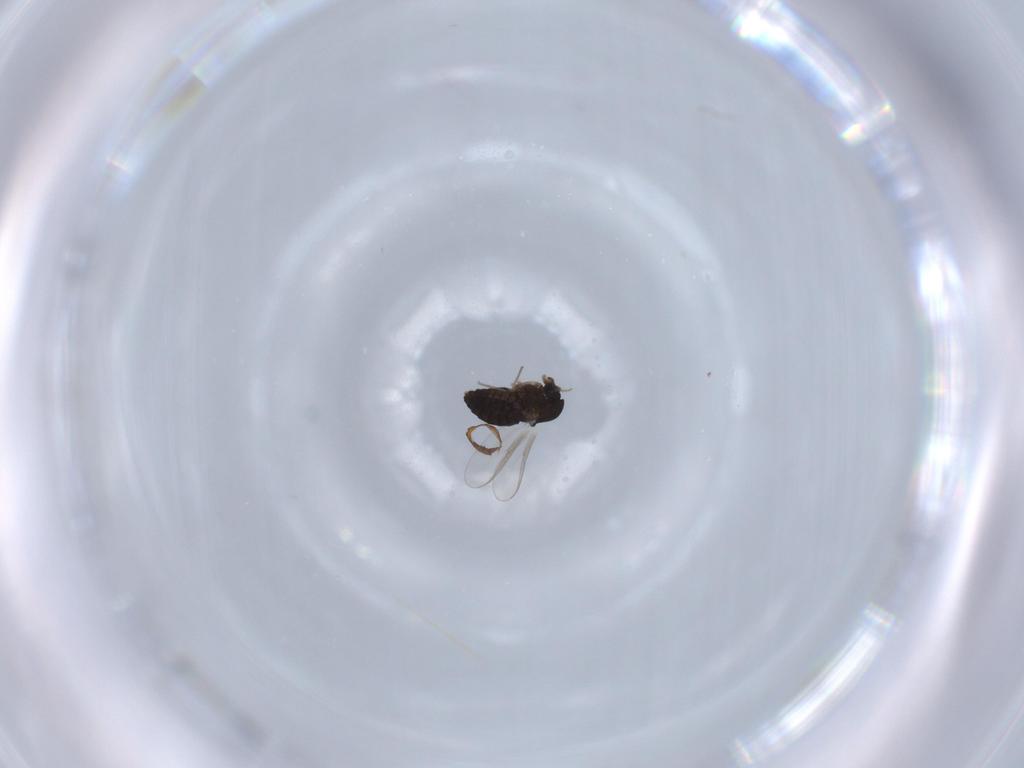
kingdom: Animalia
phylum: Arthropoda
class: Insecta
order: Diptera
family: Chironomidae
